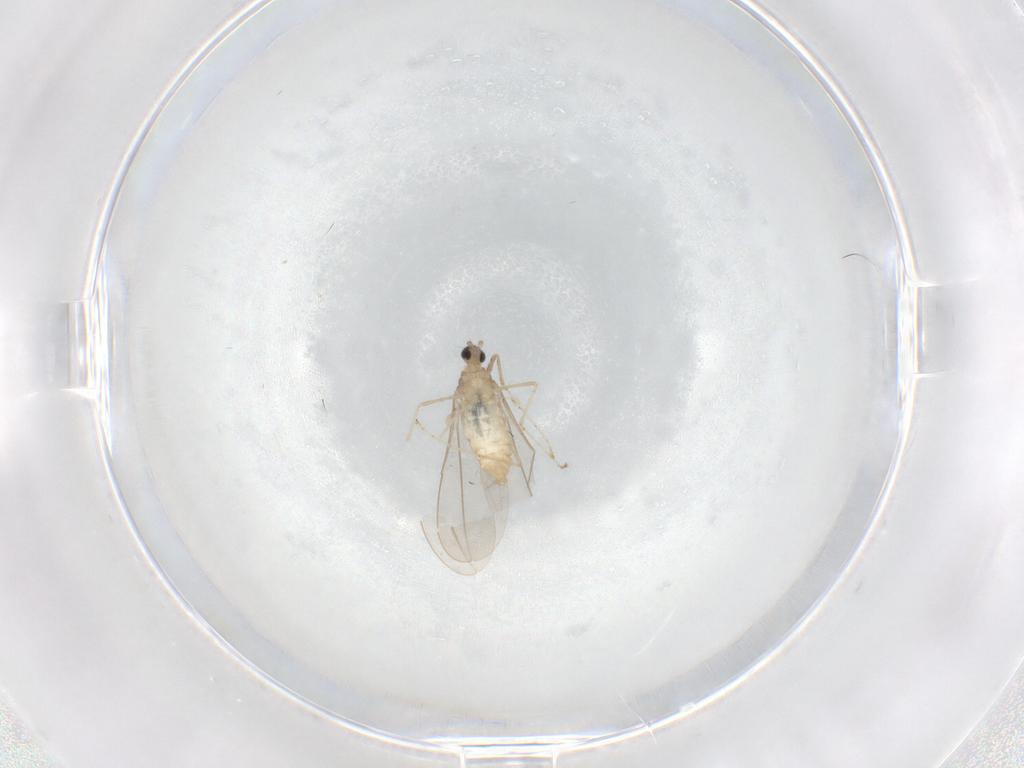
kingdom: Animalia
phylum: Arthropoda
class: Insecta
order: Diptera
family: Cecidomyiidae
